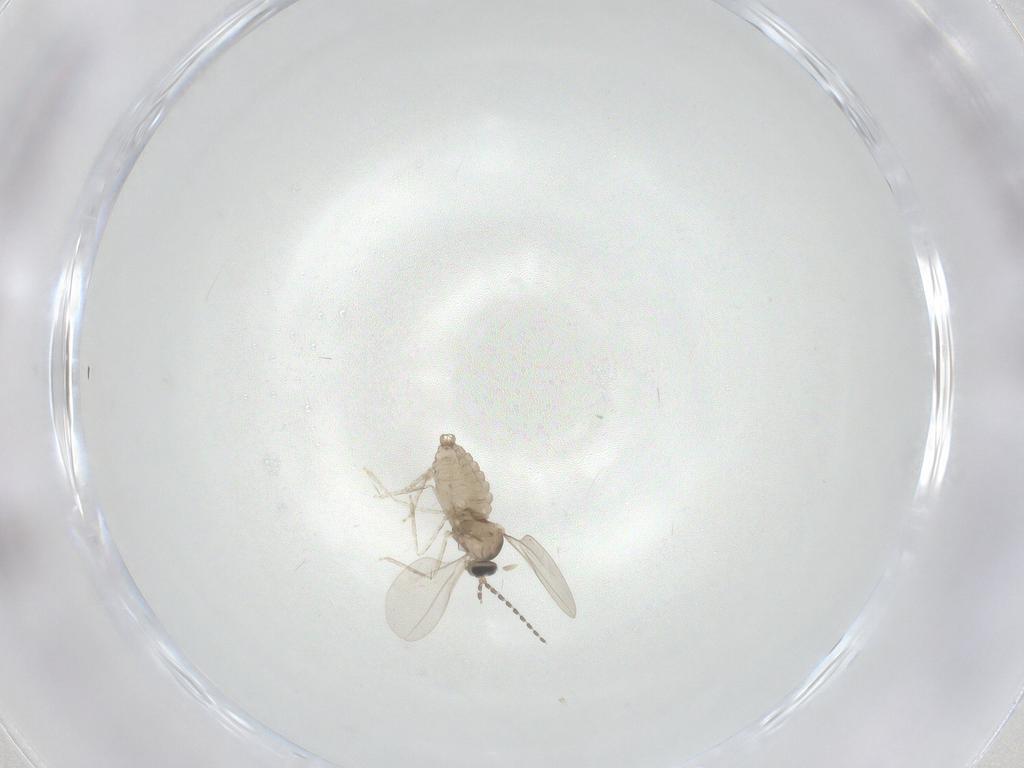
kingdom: Animalia
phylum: Arthropoda
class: Insecta
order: Diptera
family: Cecidomyiidae
